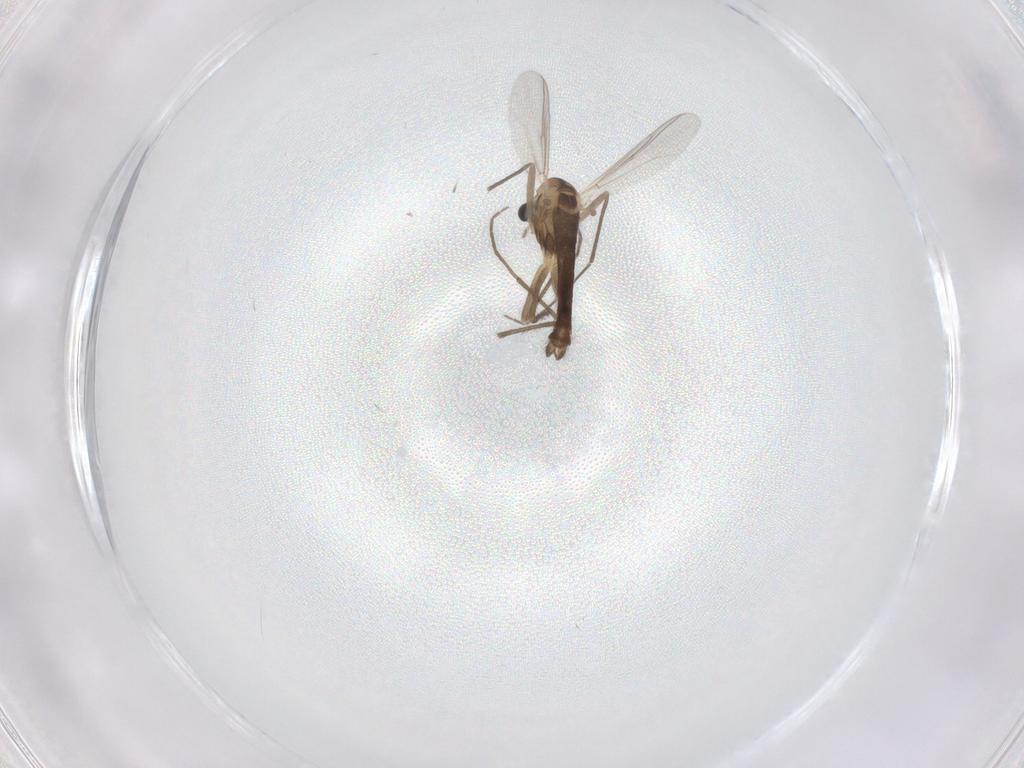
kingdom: Animalia
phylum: Arthropoda
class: Insecta
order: Diptera
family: Chironomidae
